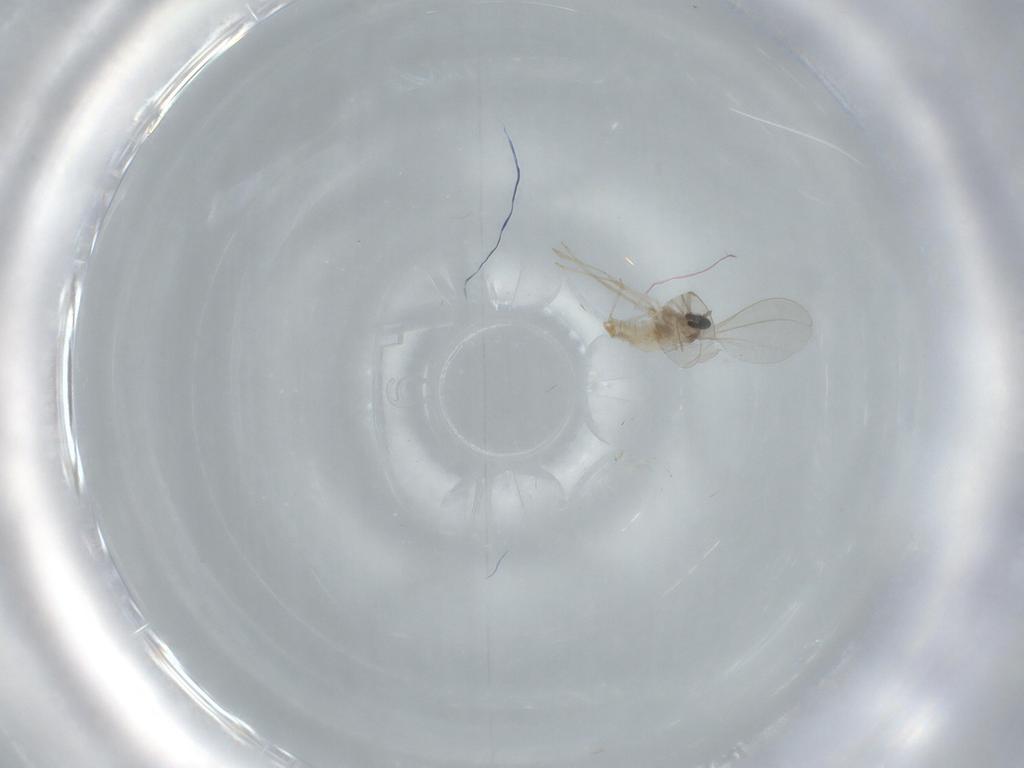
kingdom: Animalia
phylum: Arthropoda
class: Insecta
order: Diptera
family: Cecidomyiidae
